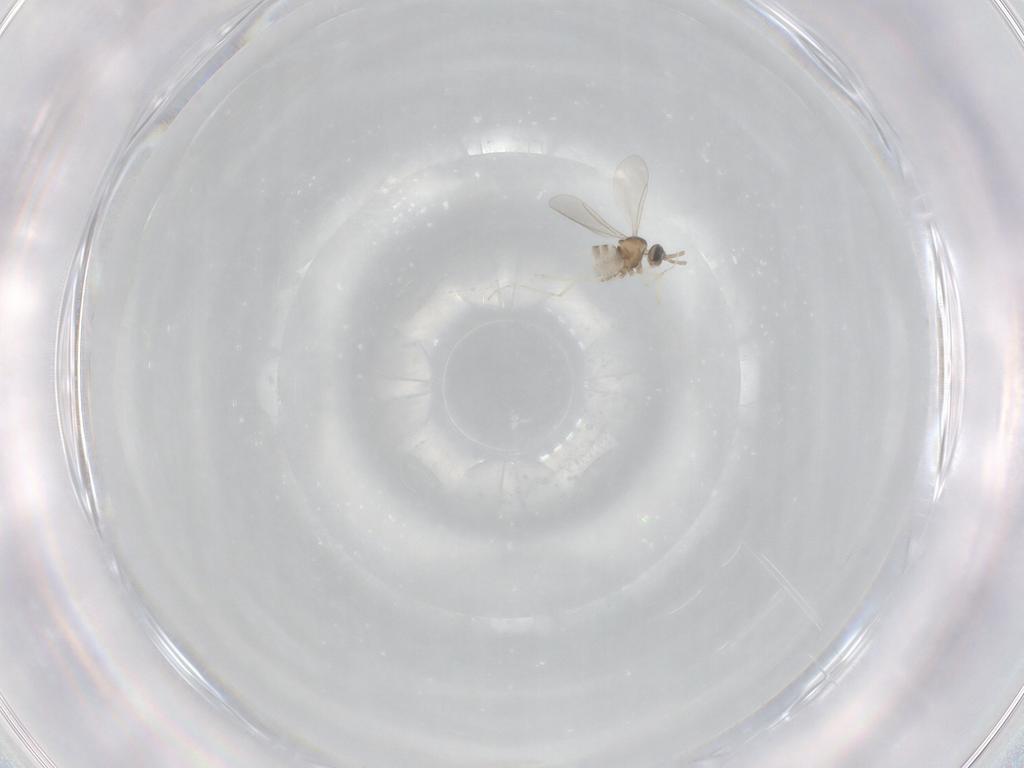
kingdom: Animalia
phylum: Arthropoda
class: Insecta
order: Diptera
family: Cecidomyiidae
